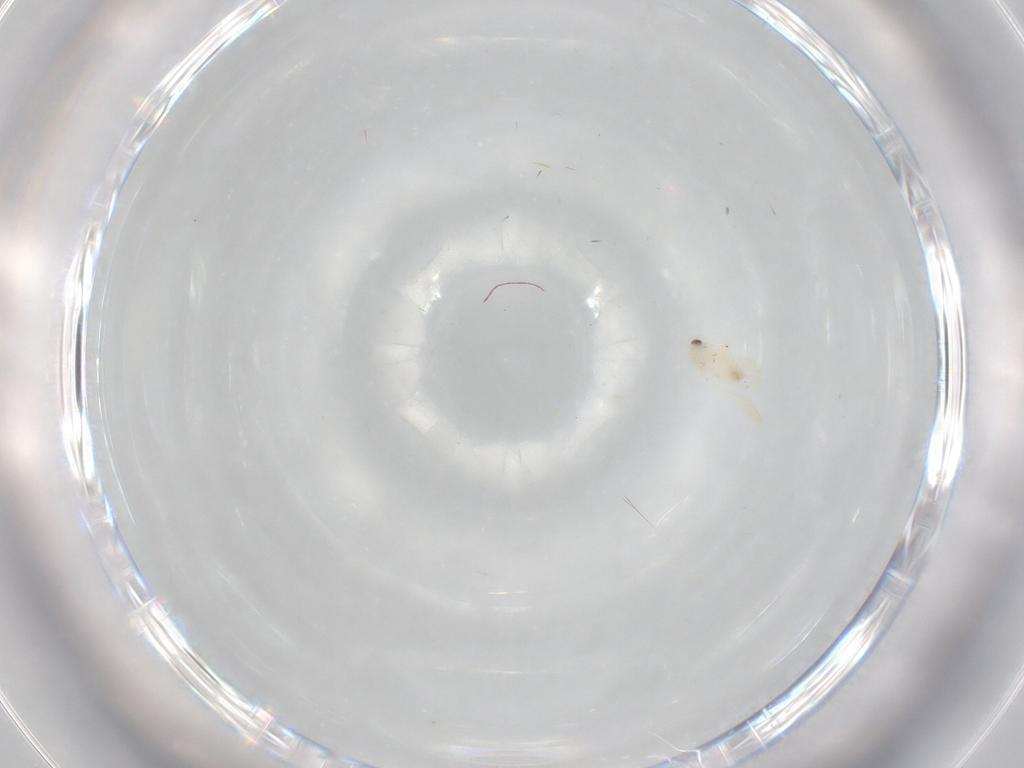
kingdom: Animalia
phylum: Arthropoda
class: Insecta
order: Hemiptera
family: Aleyrodidae
